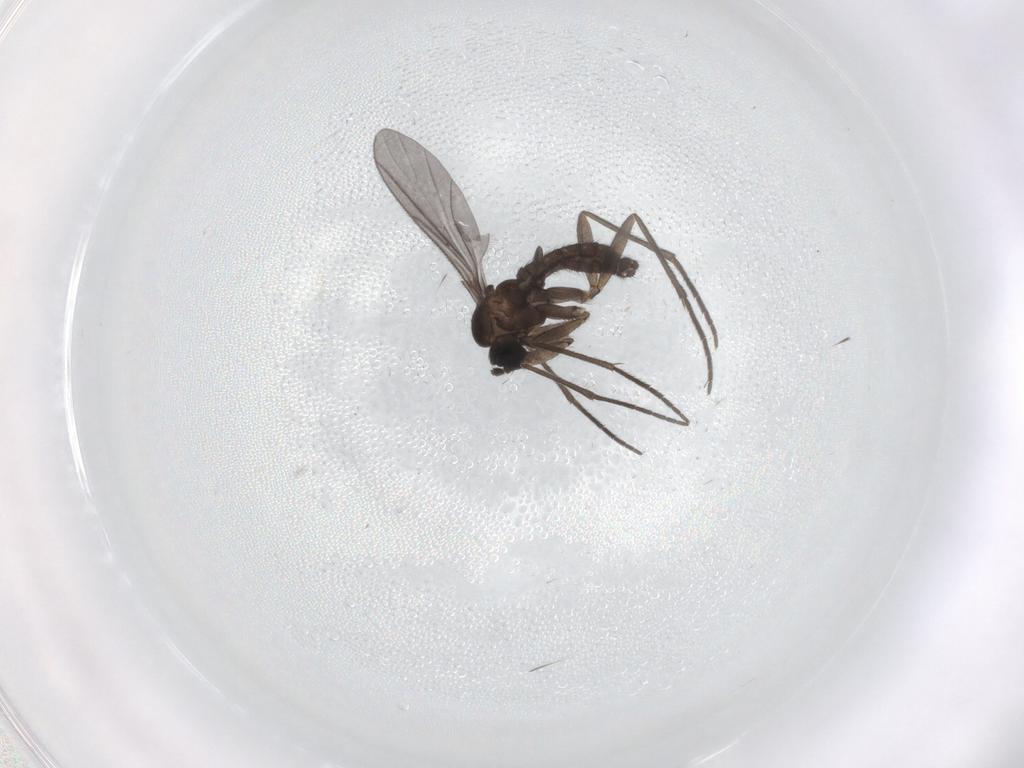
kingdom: Animalia
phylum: Arthropoda
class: Insecta
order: Diptera
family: Sciaridae
